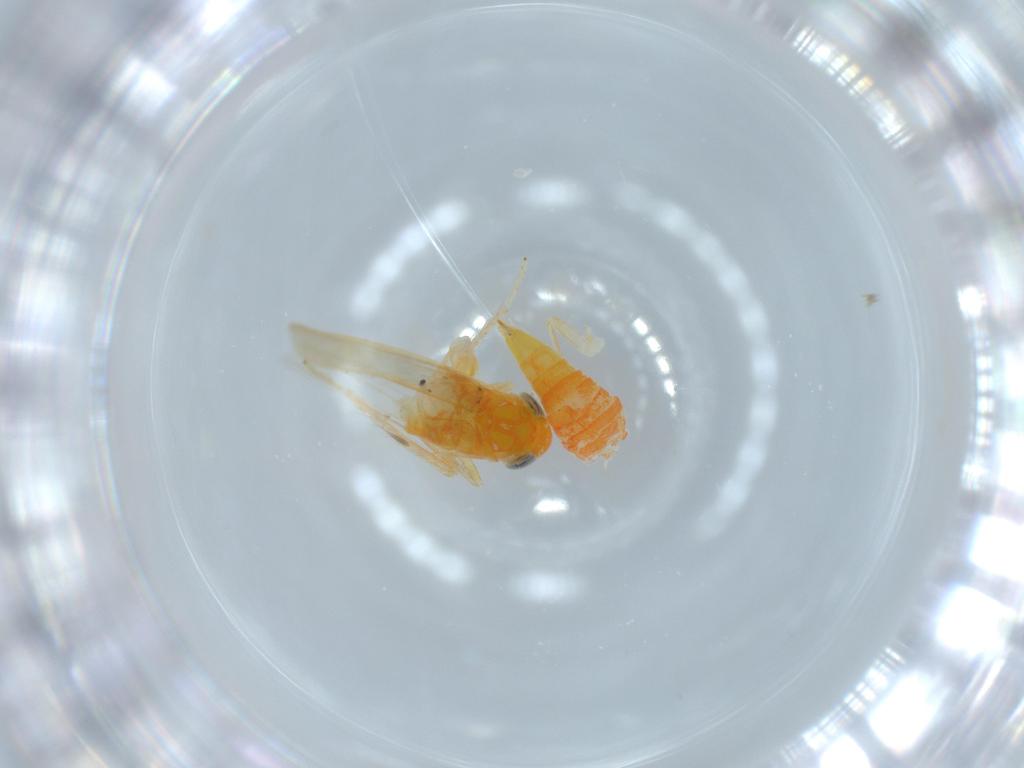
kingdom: Animalia
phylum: Arthropoda
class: Insecta
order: Hemiptera
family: Cicadellidae
